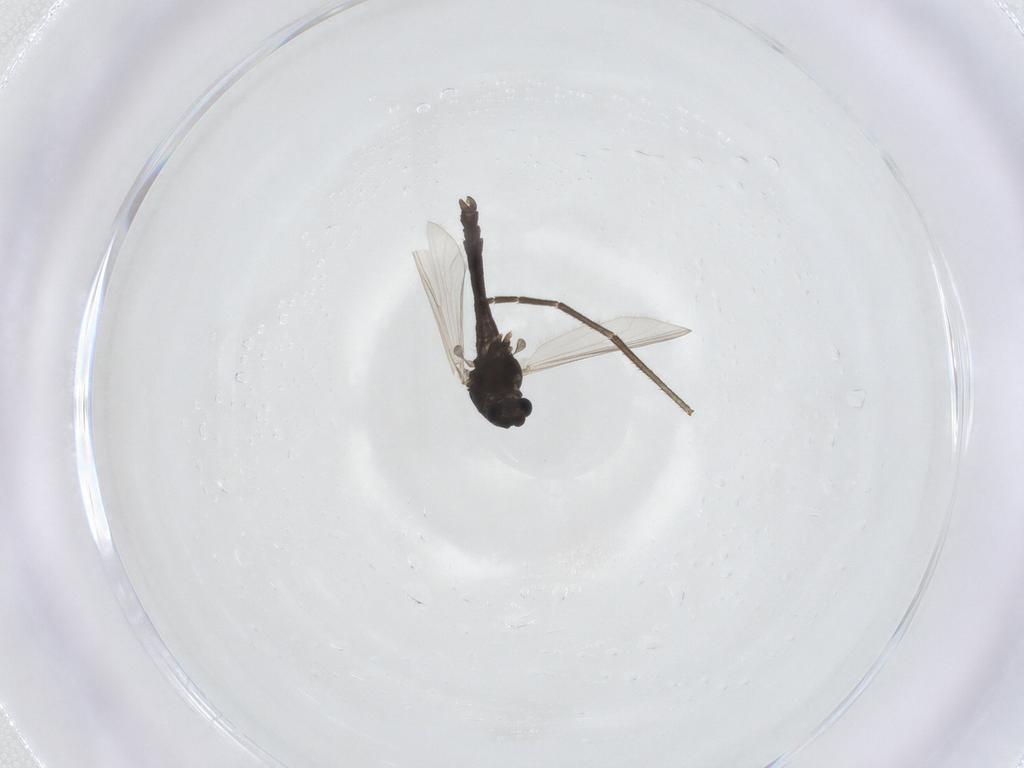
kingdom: Animalia
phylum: Arthropoda
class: Insecta
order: Diptera
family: Chironomidae
